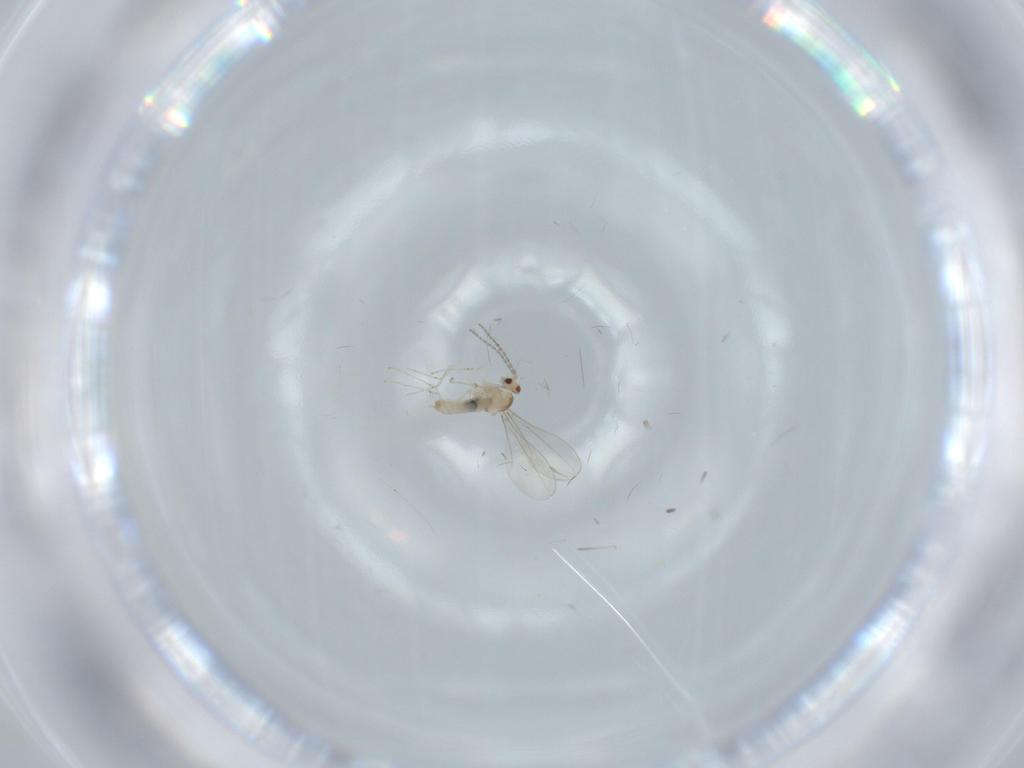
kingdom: Animalia
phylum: Arthropoda
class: Insecta
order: Diptera
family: Cecidomyiidae
